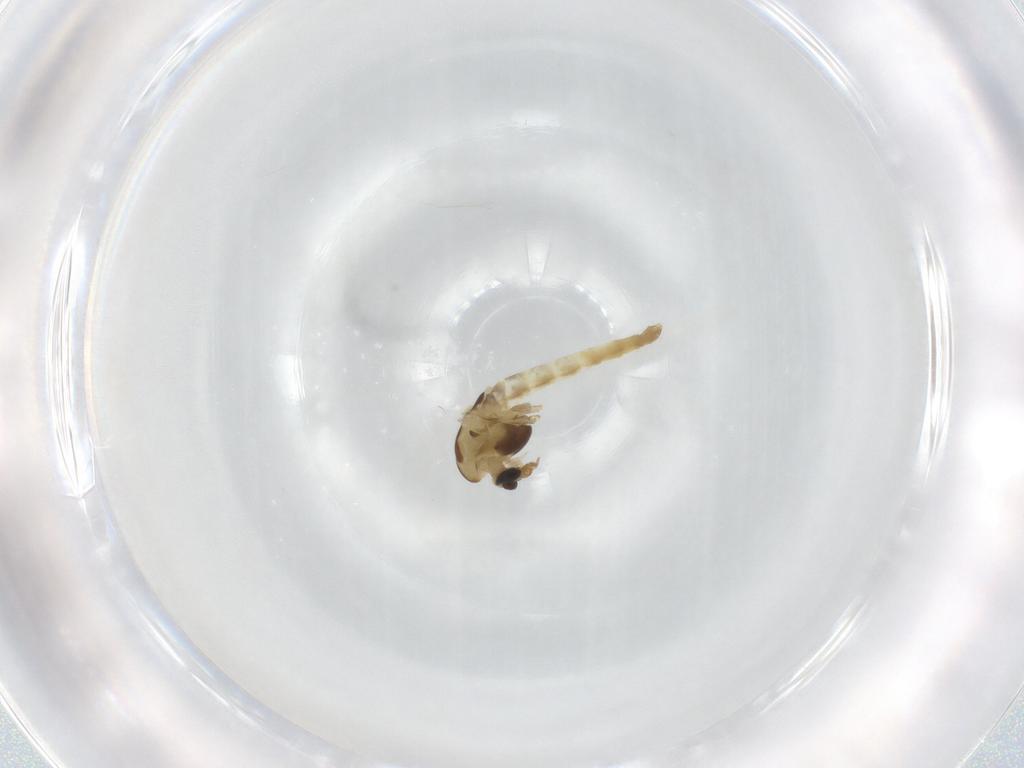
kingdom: Animalia
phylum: Arthropoda
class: Insecta
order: Diptera
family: Chironomidae
